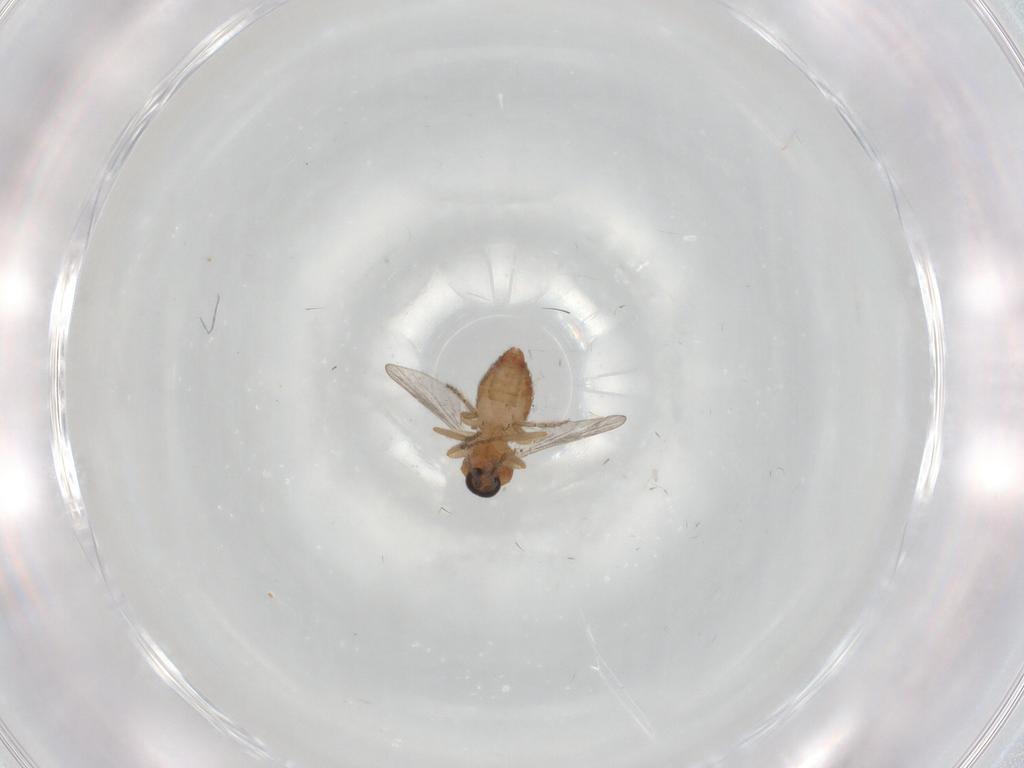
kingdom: Animalia
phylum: Arthropoda
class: Insecta
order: Diptera
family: Ceratopogonidae
